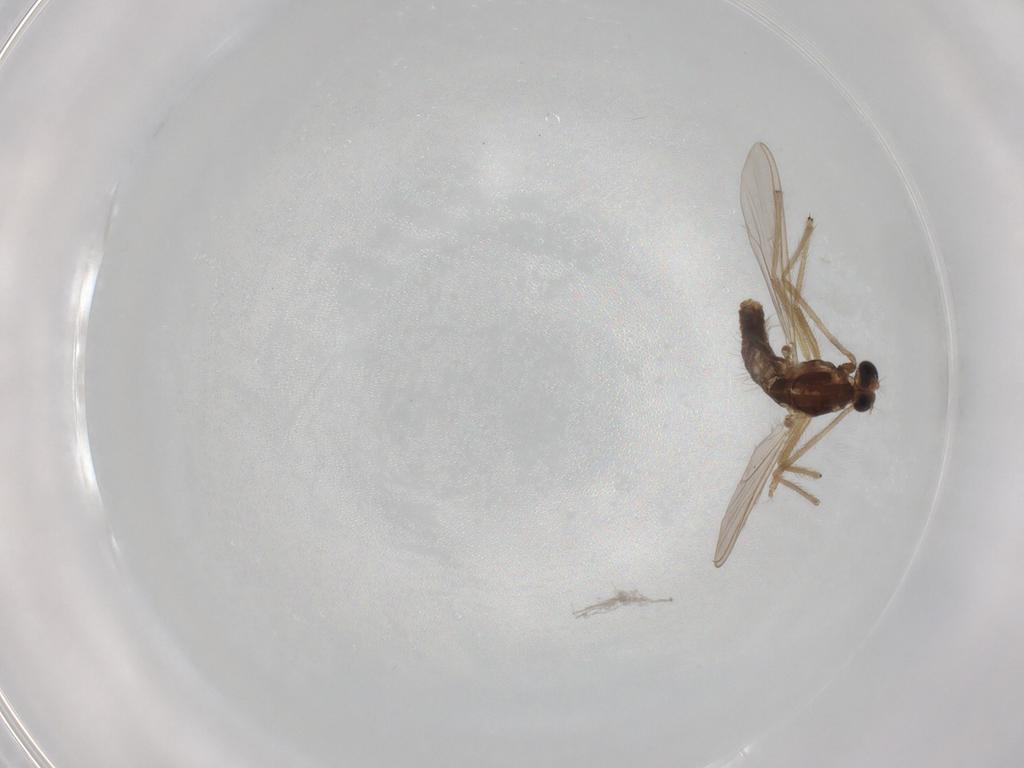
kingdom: Animalia
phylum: Arthropoda
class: Insecta
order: Diptera
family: Chironomidae
